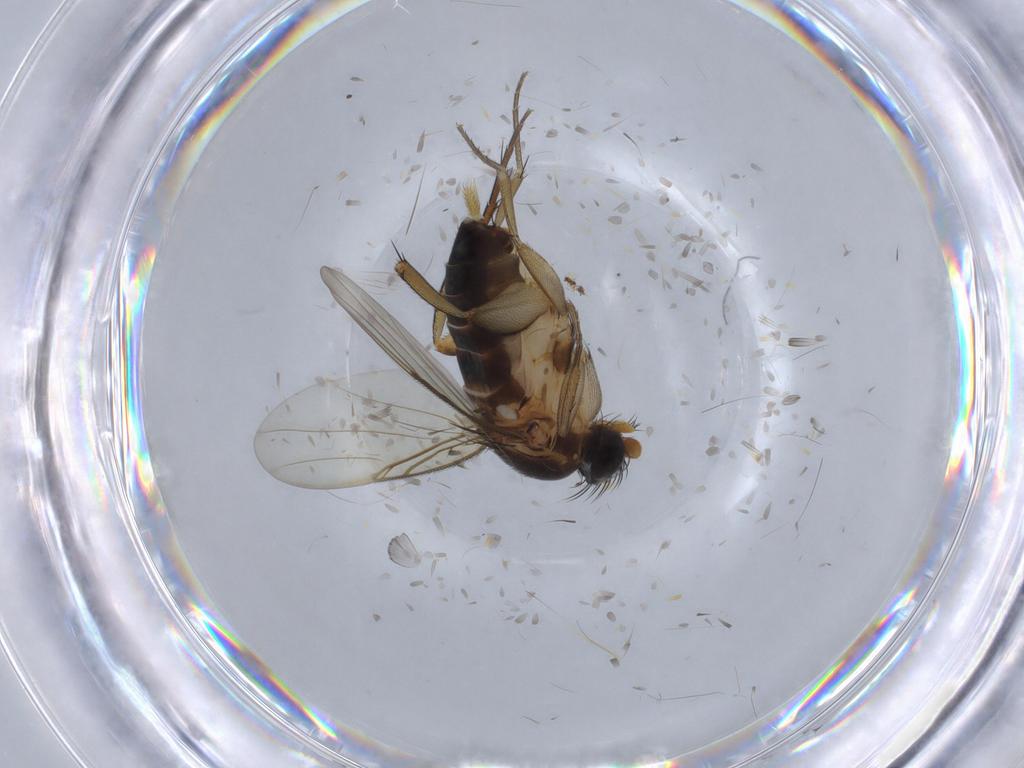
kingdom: Animalia
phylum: Arthropoda
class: Insecta
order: Diptera
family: Phoridae
